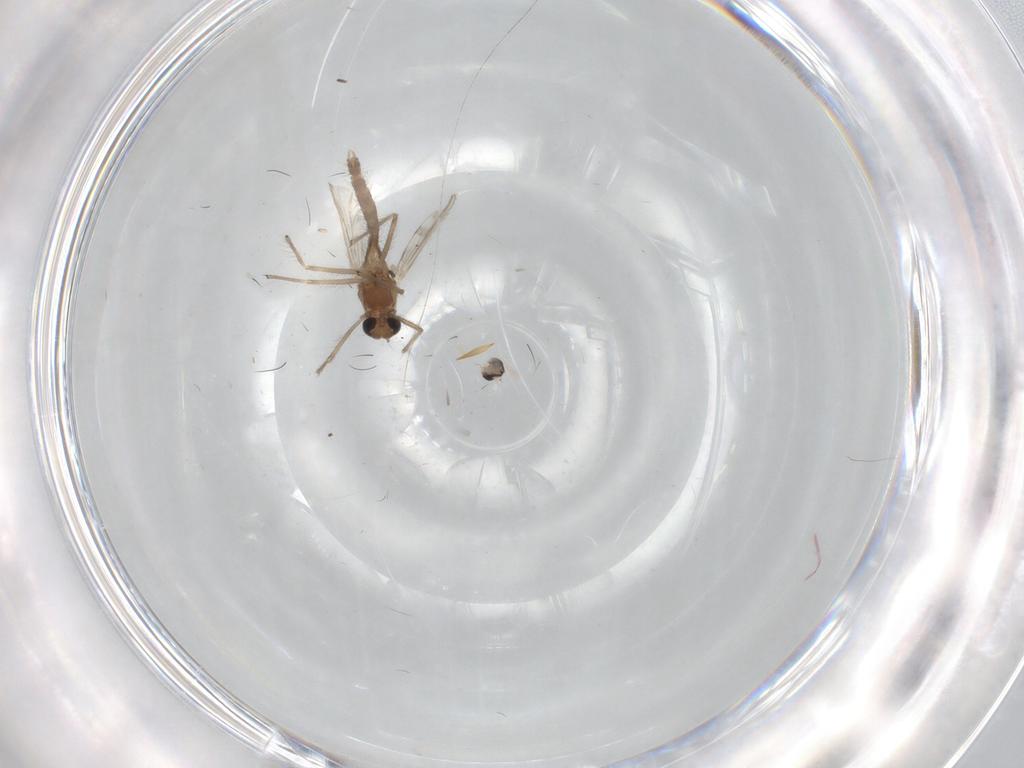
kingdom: Animalia
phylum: Arthropoda
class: Insecta
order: Diptera
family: Chironomidae
